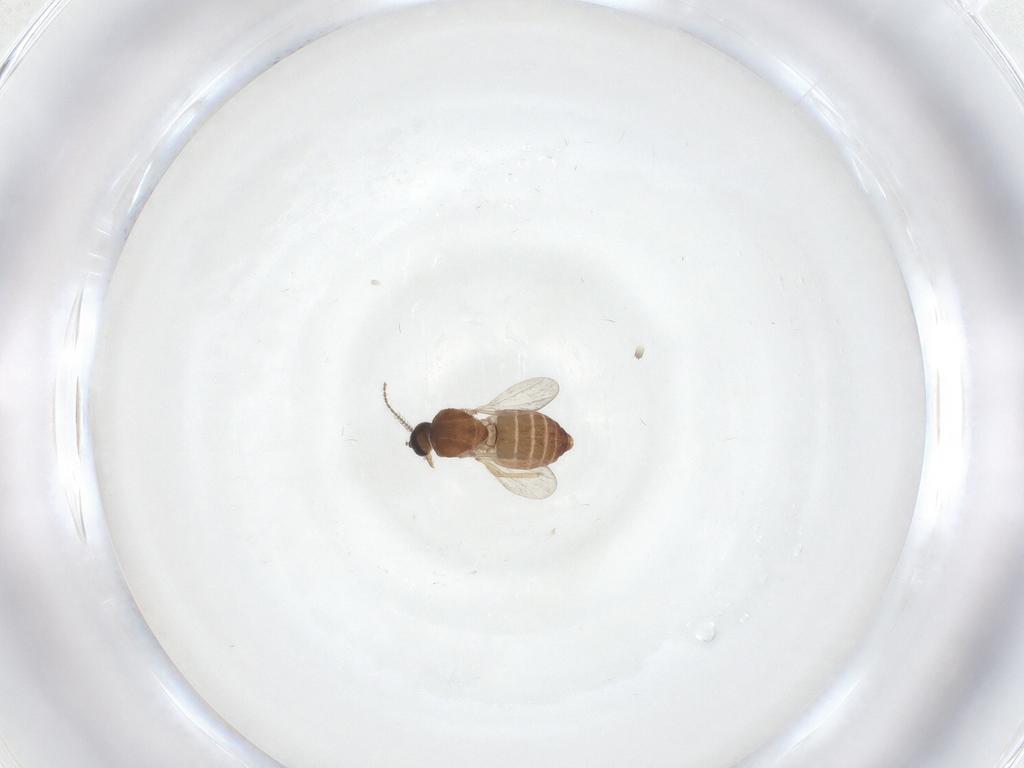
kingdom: Animalia
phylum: Arthropoda
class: Insecta
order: Diptera
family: Ceratopogonidae
